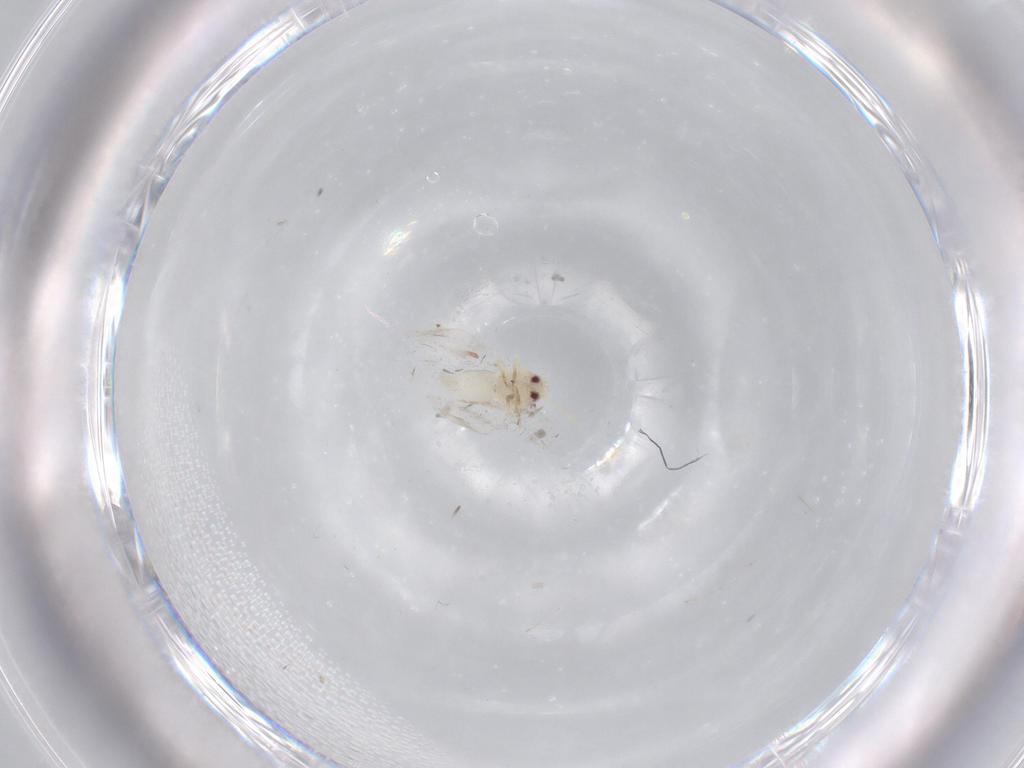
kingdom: Animalia
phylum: Arthropoda
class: Insecta
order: Hemiptera
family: Aleyrodidae
